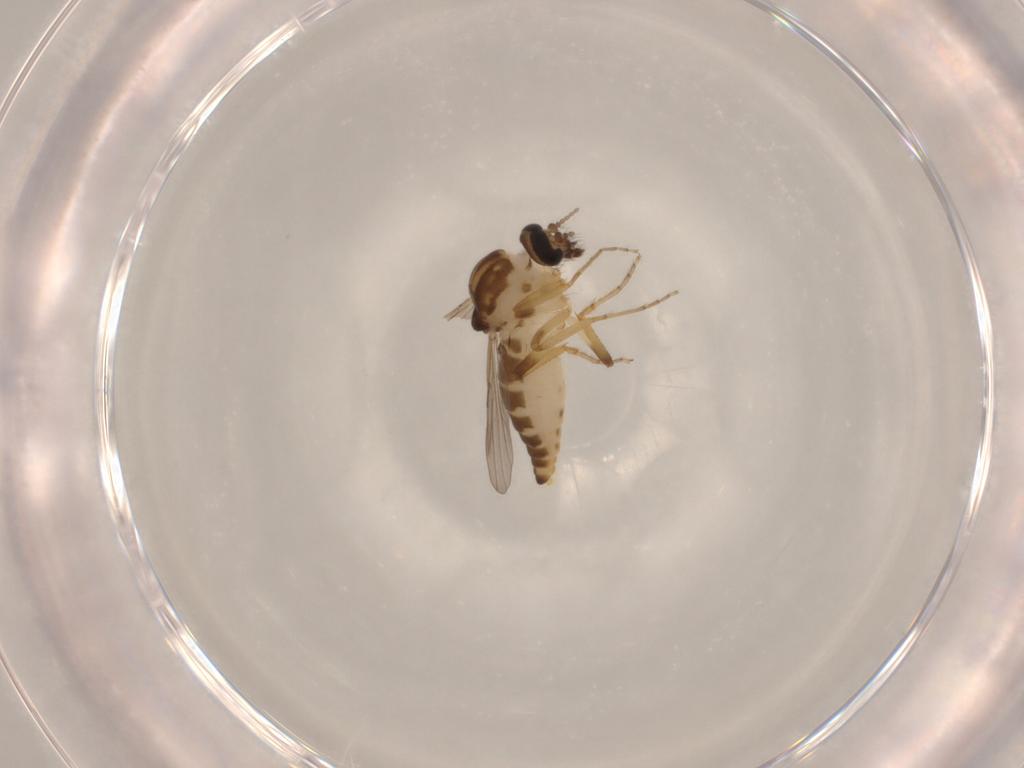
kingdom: Animalia
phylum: Arthropoda
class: Insecta
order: Diptera
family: Ceratopogonidae
